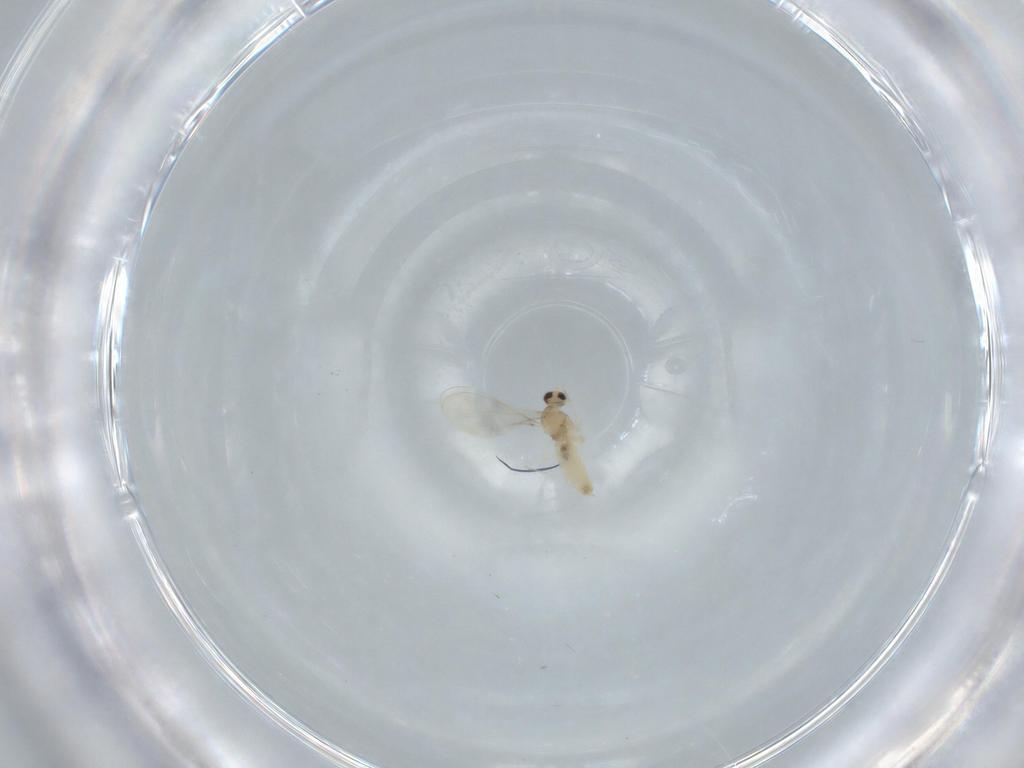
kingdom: Animalia
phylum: Arthropoda
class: Insecta
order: Diptera
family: Cecidomyiidae
